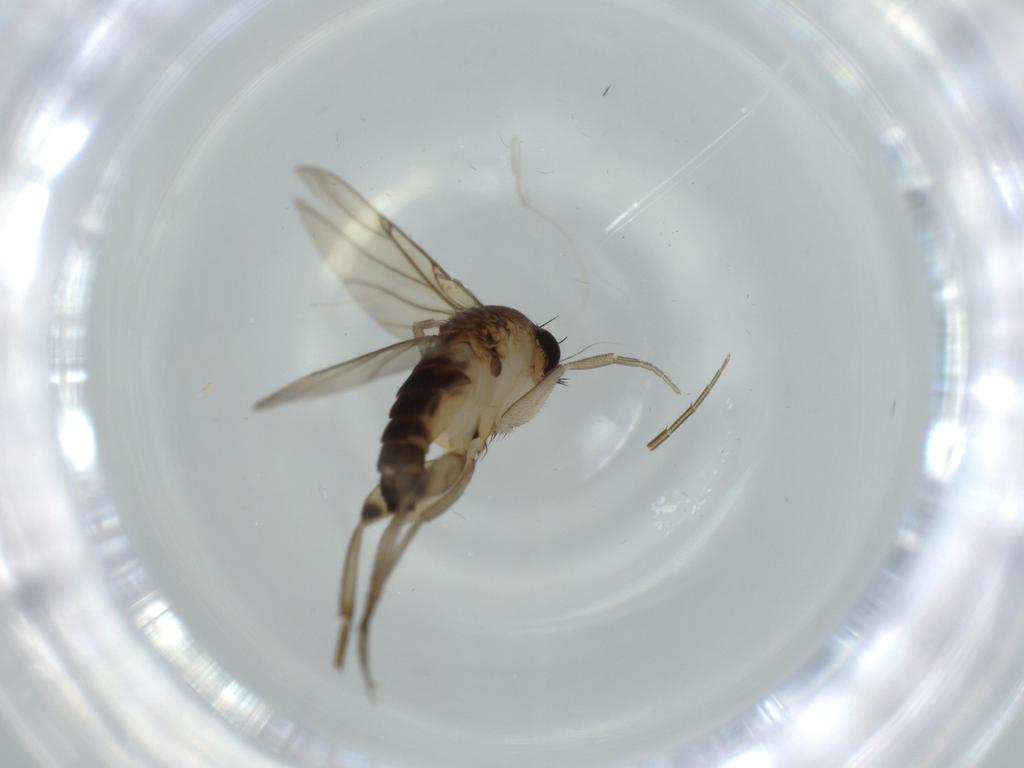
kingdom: Animalia
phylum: Arthropoda
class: Insecta
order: Diptera
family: Phoridae
